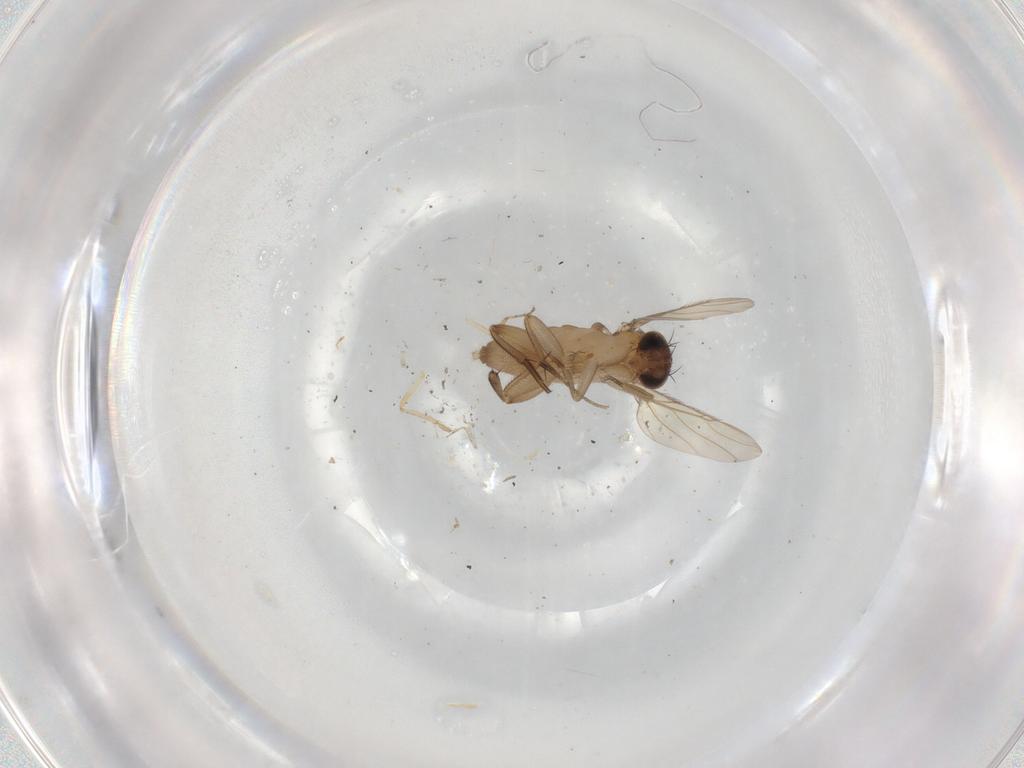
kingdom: Animalia
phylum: Arthropoda
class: Insecta
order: Diptera
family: Phoridae
